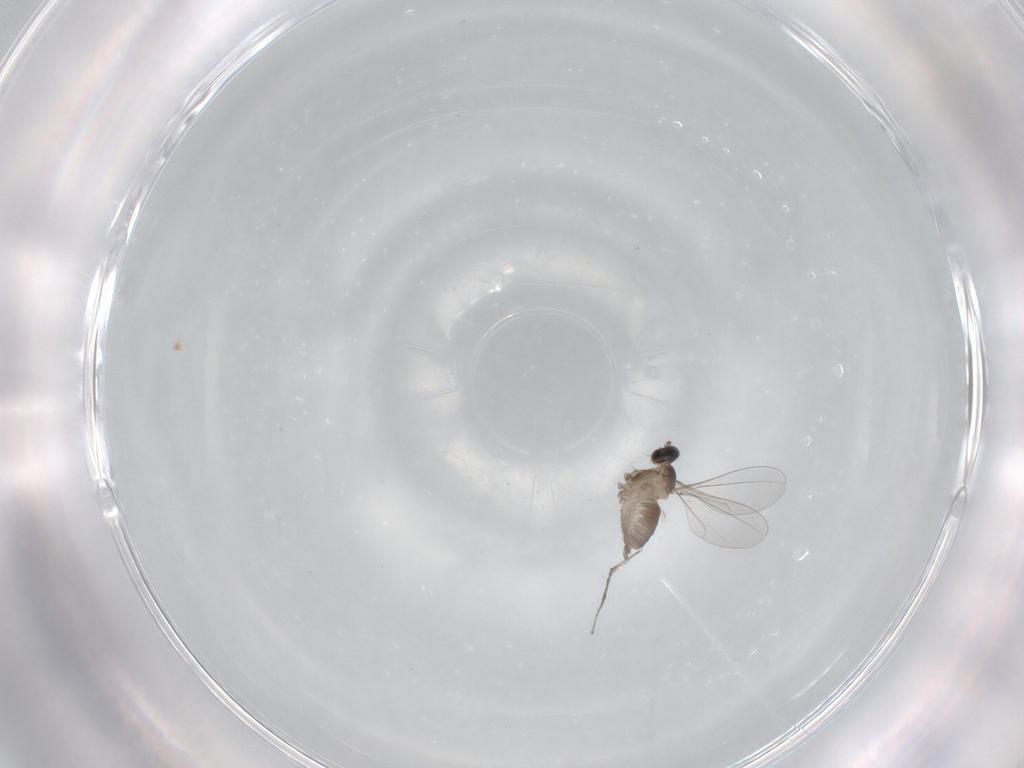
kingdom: Animalia
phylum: Arthropoda
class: Insecta
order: Diptera
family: Cecidomyiidae
